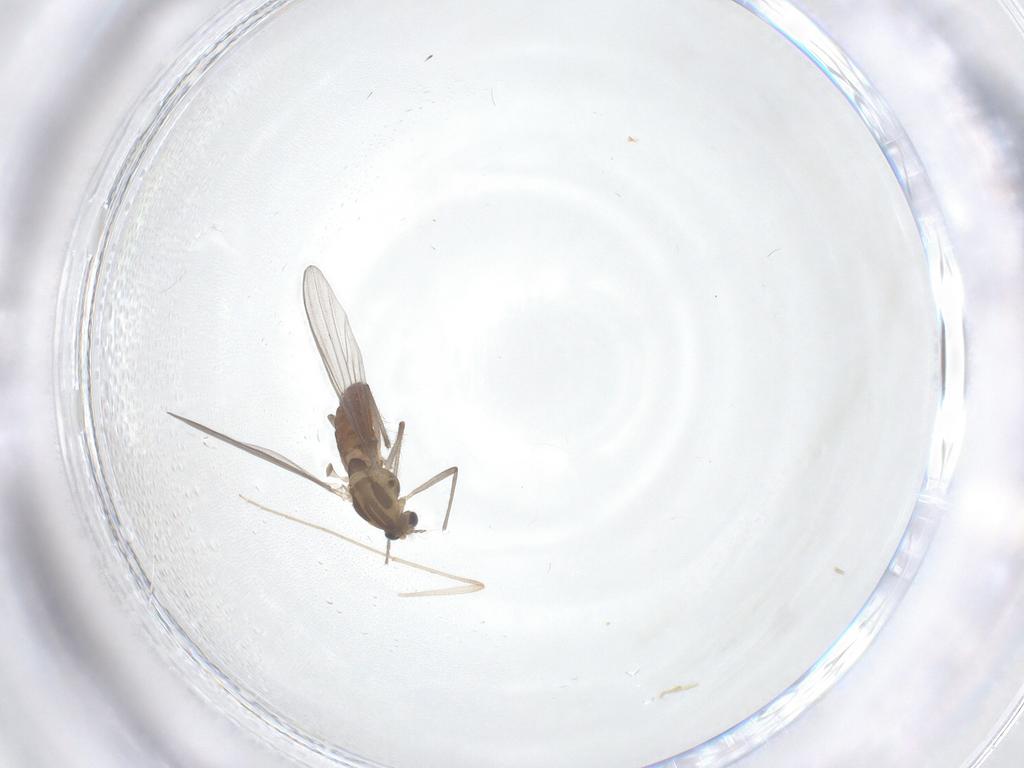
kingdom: Animalia
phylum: Arthropoda
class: Insecta
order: Diptera
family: Chironomidae
